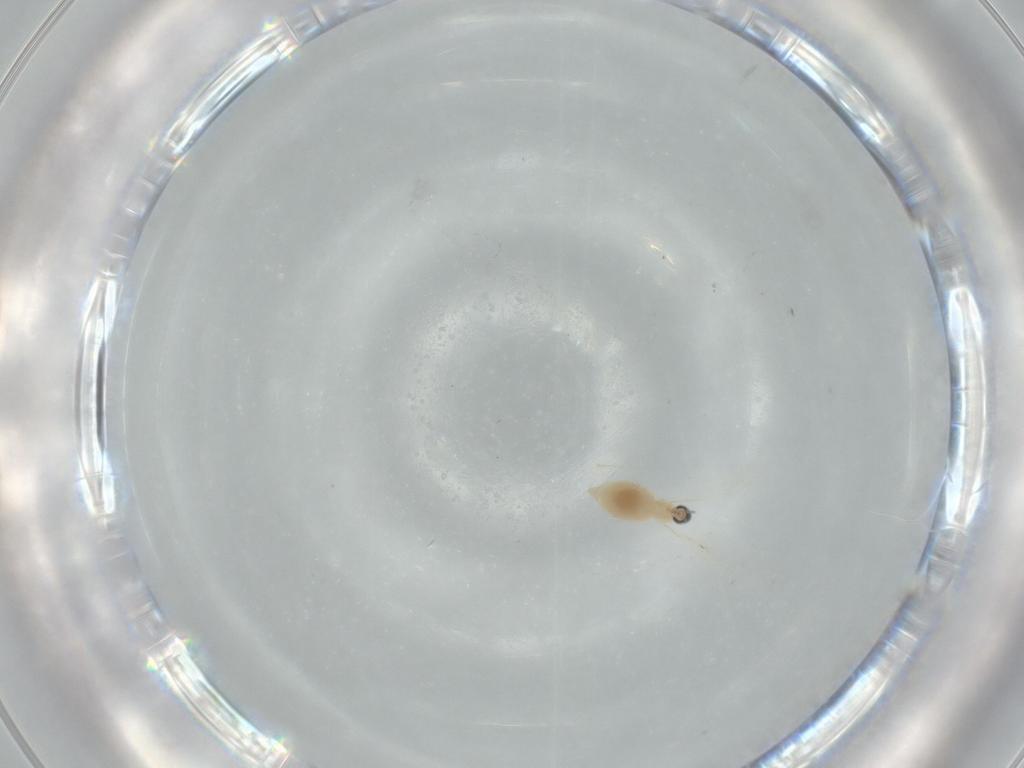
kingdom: Animalia
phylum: Arthropoda
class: Insecta
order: Diptera
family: Cecidomyiidae
